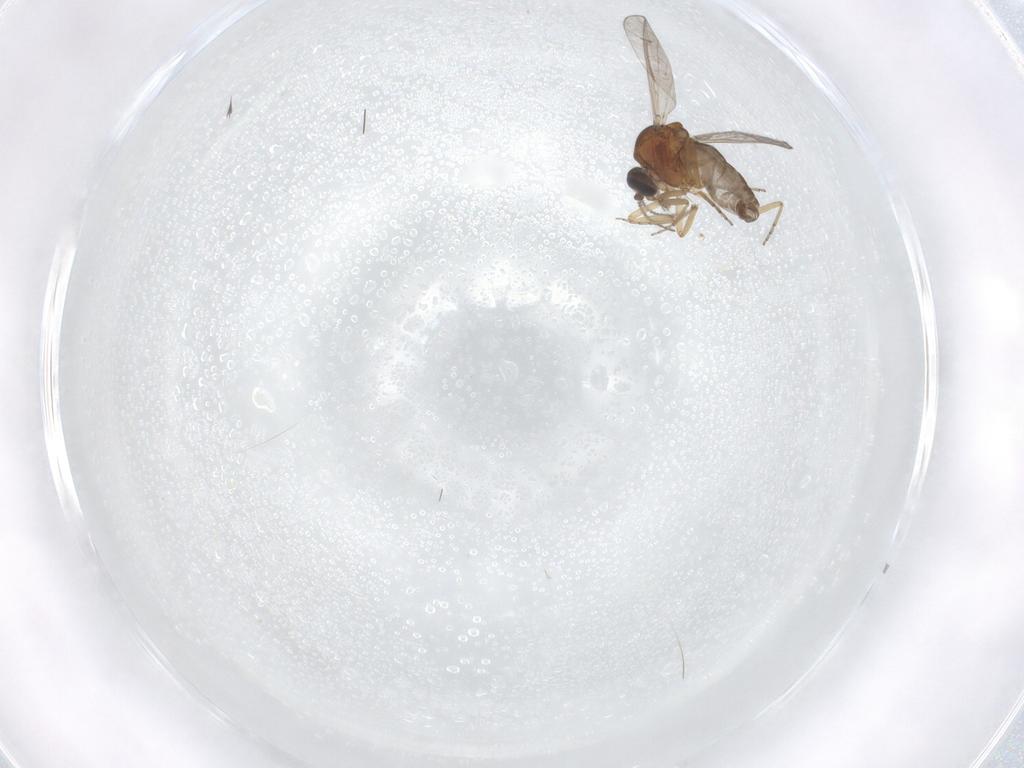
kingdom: Animalia
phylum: Arthropoda
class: Insecta
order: Diptera
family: Ceratopogonidae
